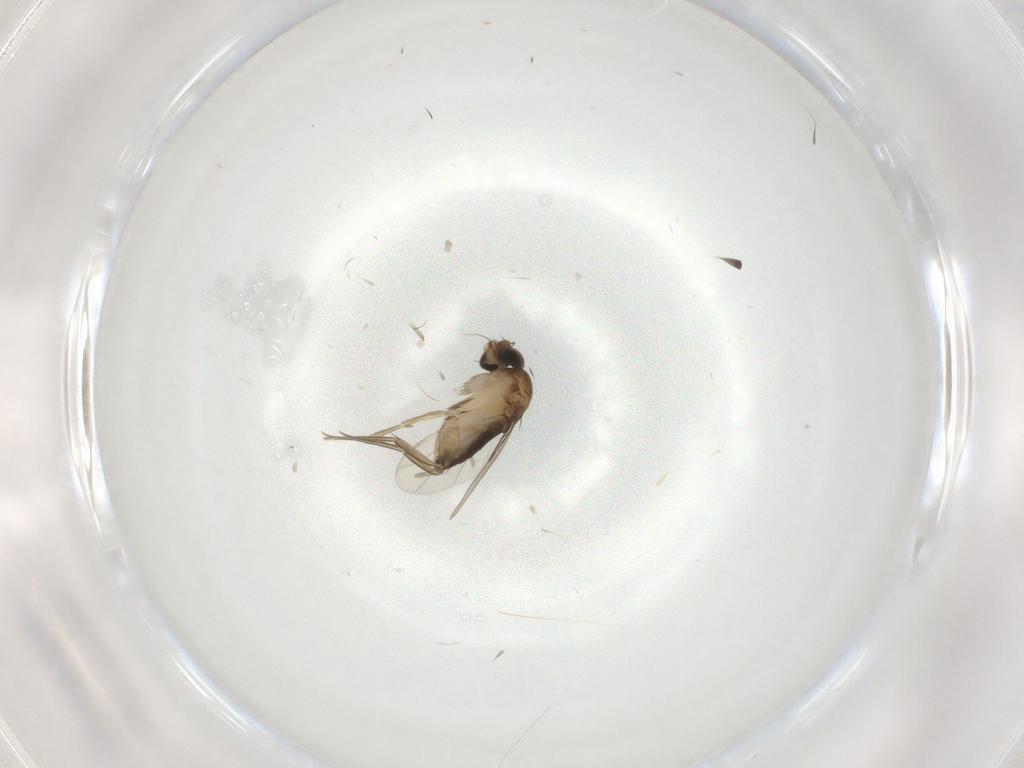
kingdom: Animalia
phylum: Arthropoda
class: Insecta
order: Diptera
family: Phoridae
